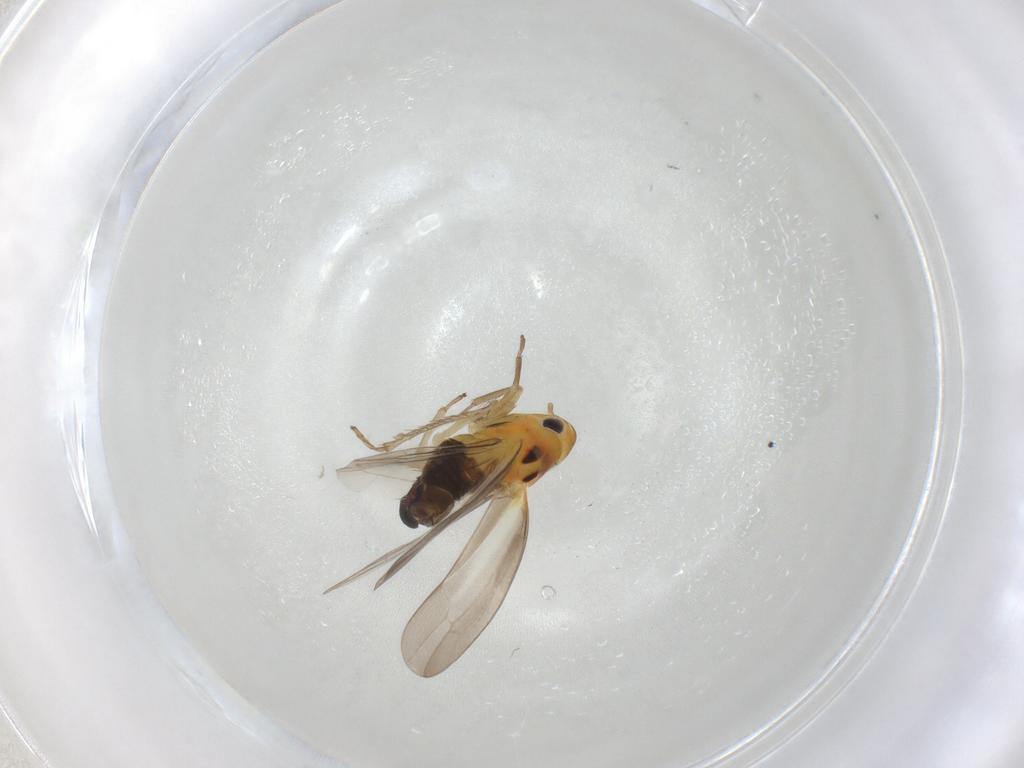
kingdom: Animalia
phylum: Arthropoda
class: Insecta
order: Hemiptera
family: Cicadellidae
